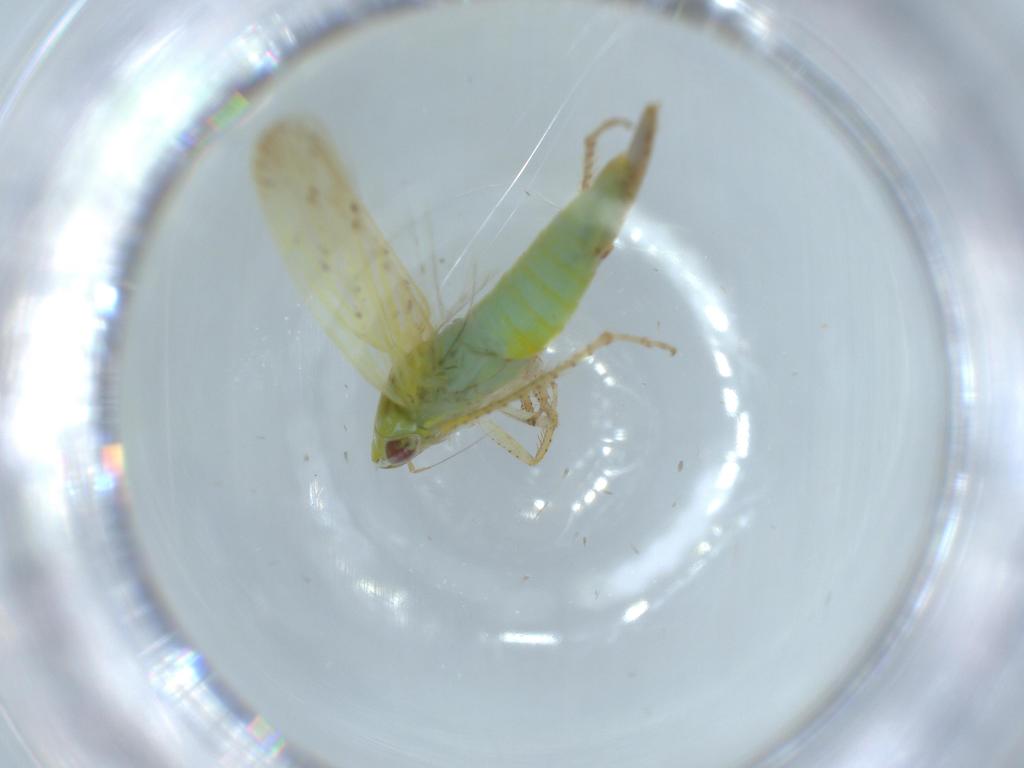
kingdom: Animalia
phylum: Arthropoda
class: Insecta
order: Hemiptera
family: Cicadellidae
